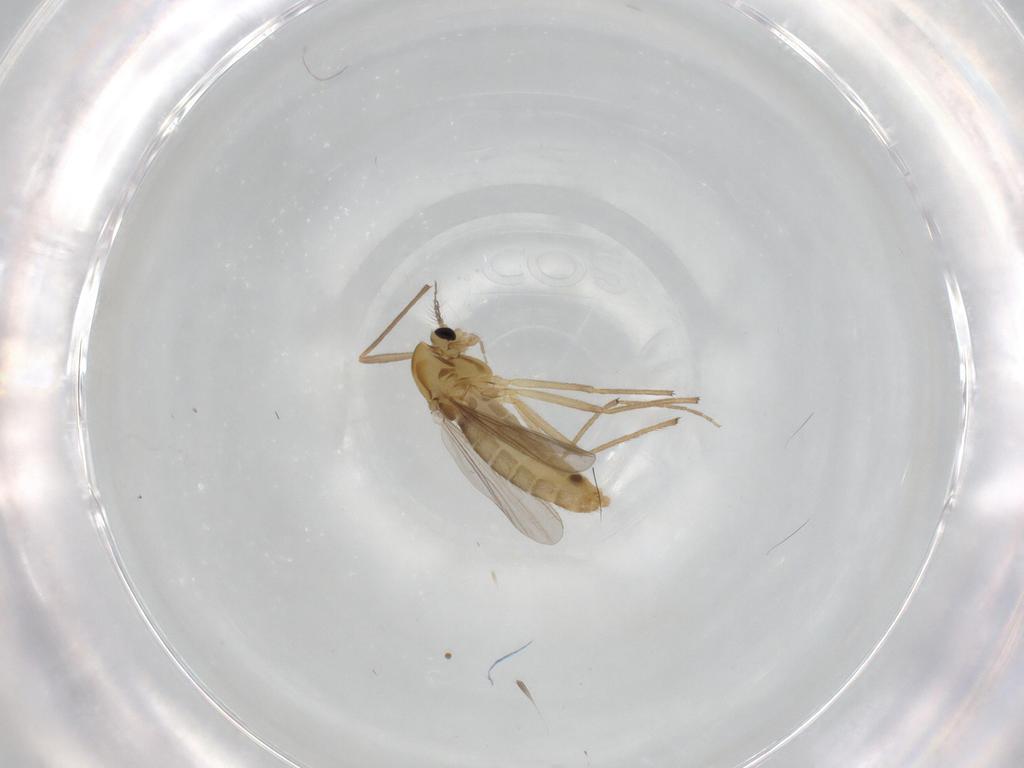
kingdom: Animalia
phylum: Arthropoda
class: Insecta
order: Diptera
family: Chironomidae
